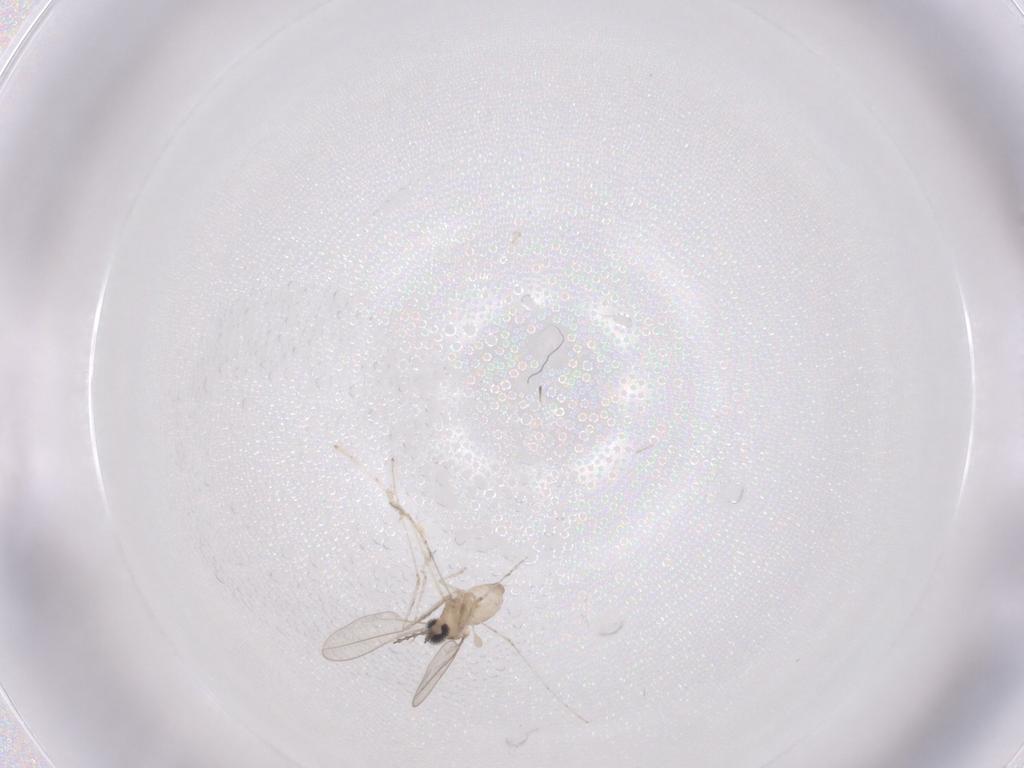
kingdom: Animalia
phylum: Arthropoda
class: Insecta
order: Diptera
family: Cecidomyiidae
